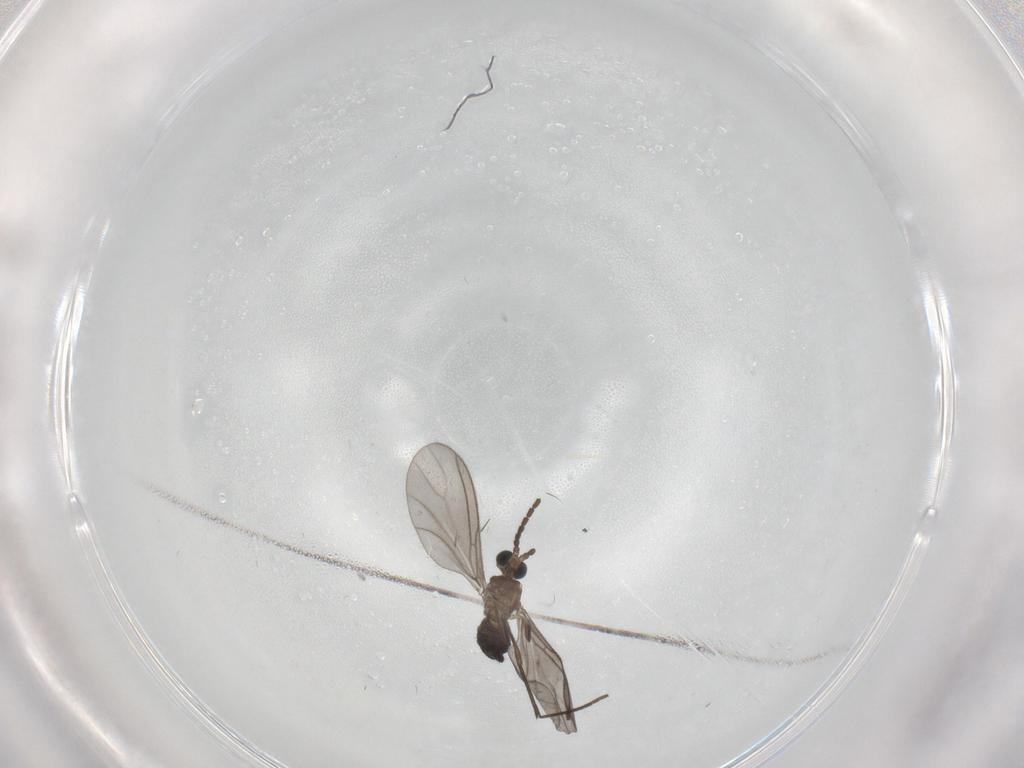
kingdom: Animalia
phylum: Arthropoda
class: Insecta
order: Diptera
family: Sciaridae
